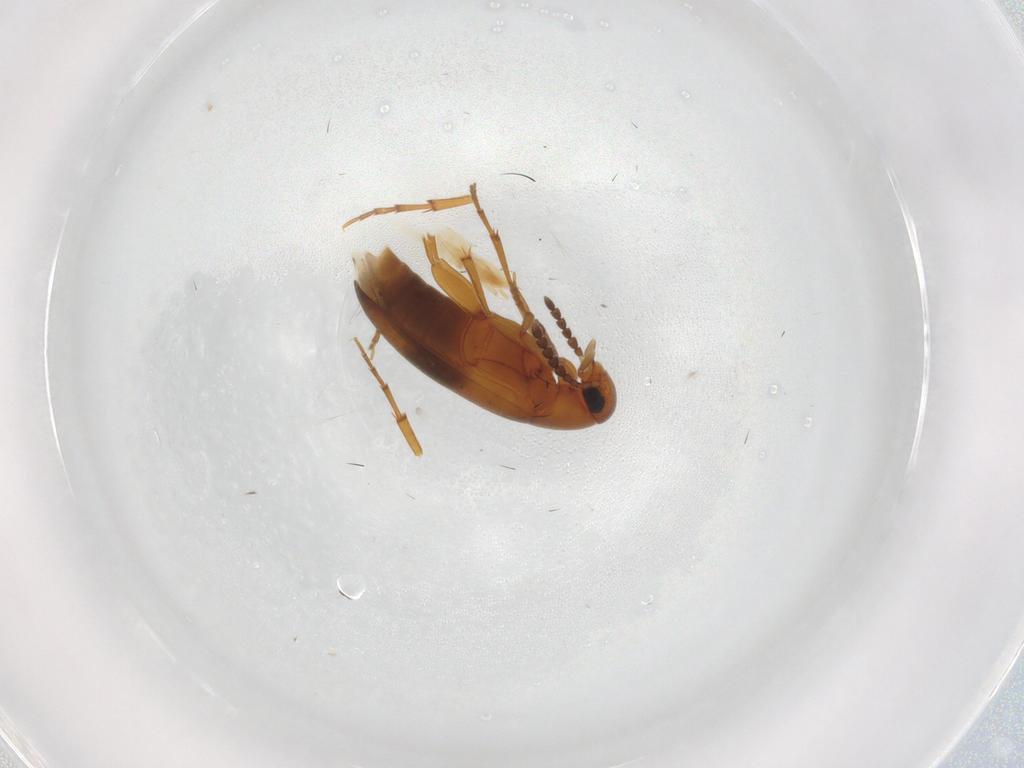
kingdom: Animalia
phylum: Arthropoda
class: Insecta
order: Coleoptera
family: Scraptiidae
